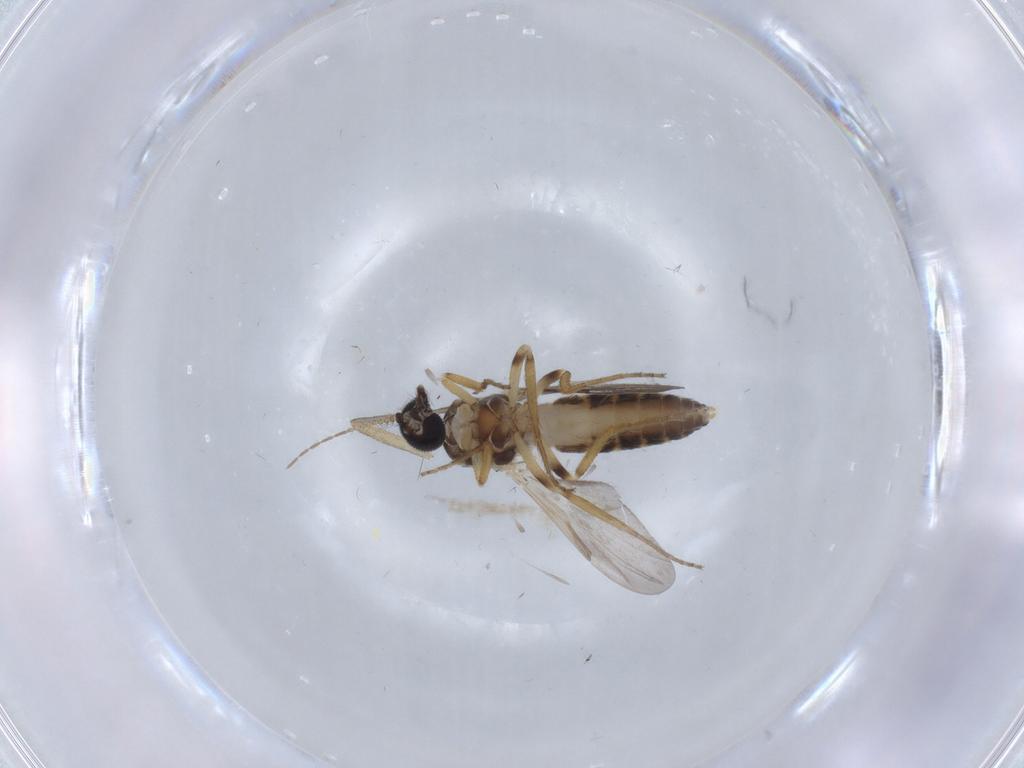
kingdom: Animalia
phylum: Arthropoda
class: Insecta
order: Diptera
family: Ceratopogonidae
